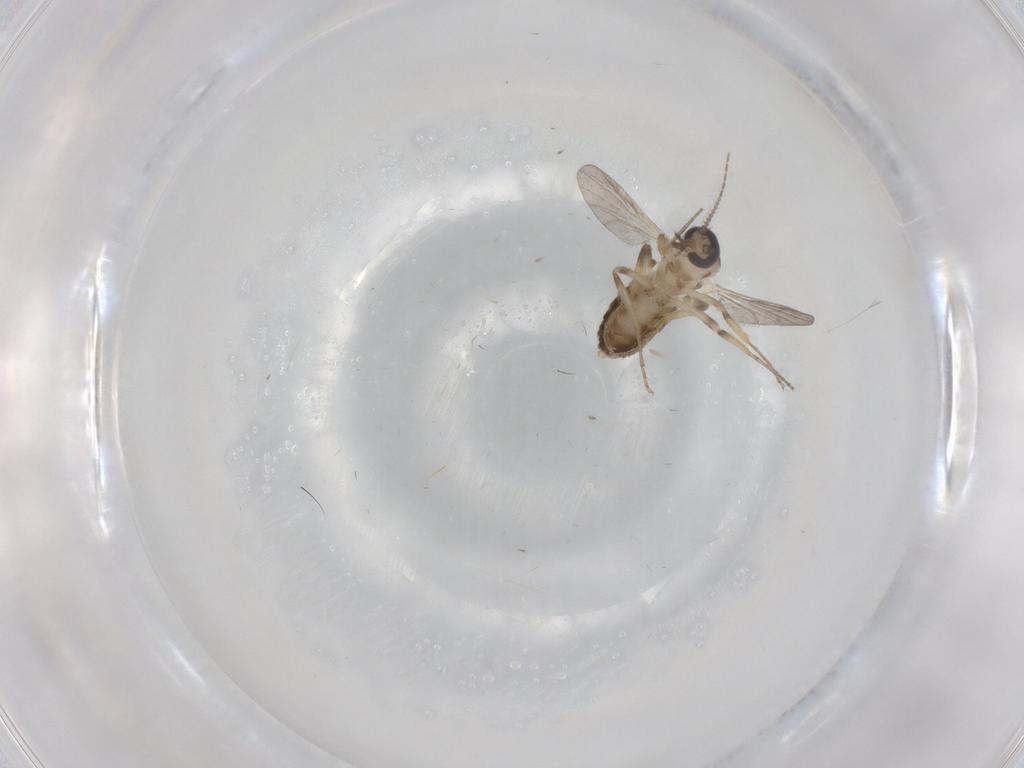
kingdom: Animalia
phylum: Arthropoda
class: Insecta
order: Diptera
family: Ceratopogonidae
